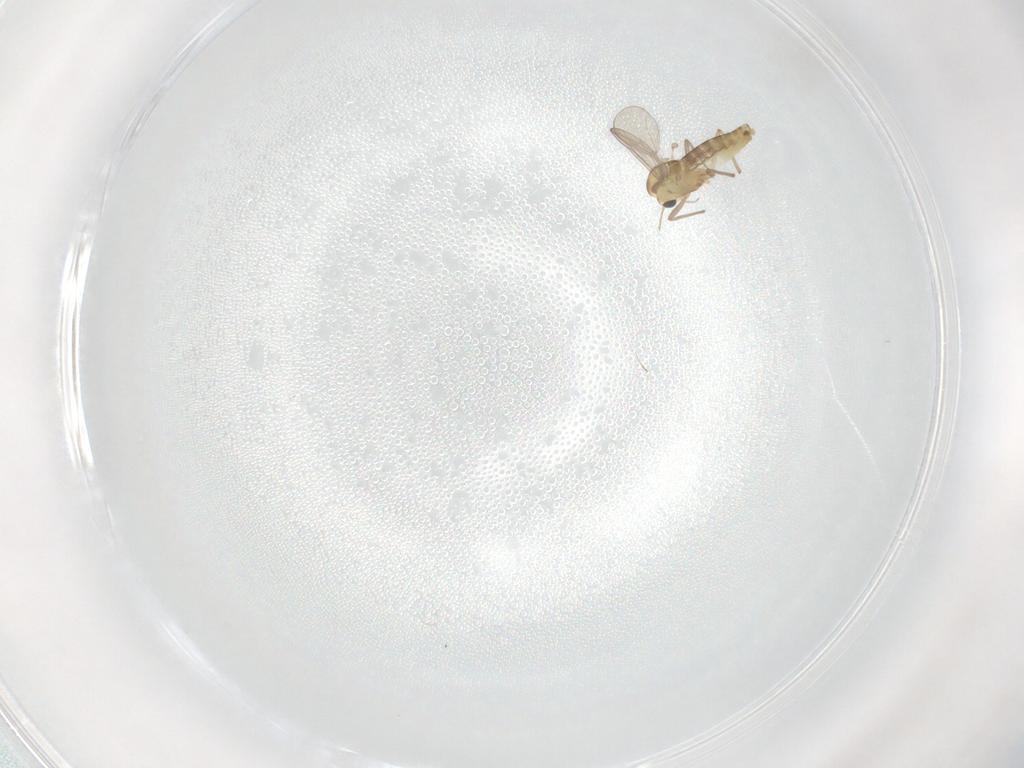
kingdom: Animalia
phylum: Arthropoda
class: Insecta
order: Diptera
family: Chironomidae
